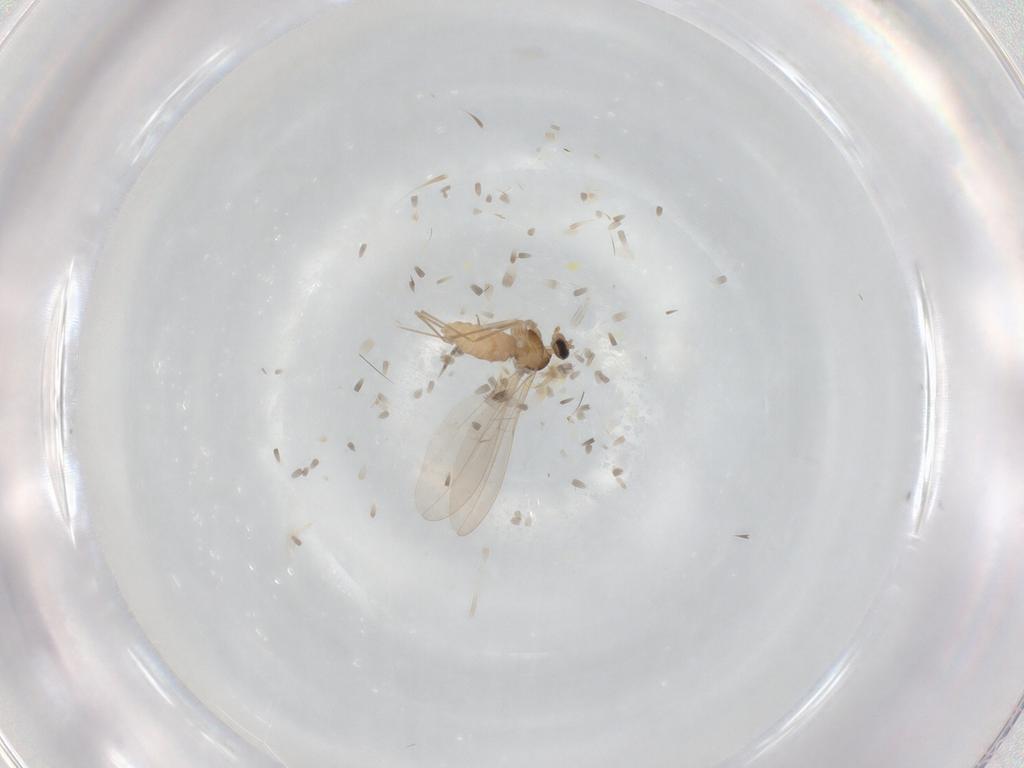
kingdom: Animalia
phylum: Arthropoda
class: Insecta
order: Diptera
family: Cecidomyiidae
